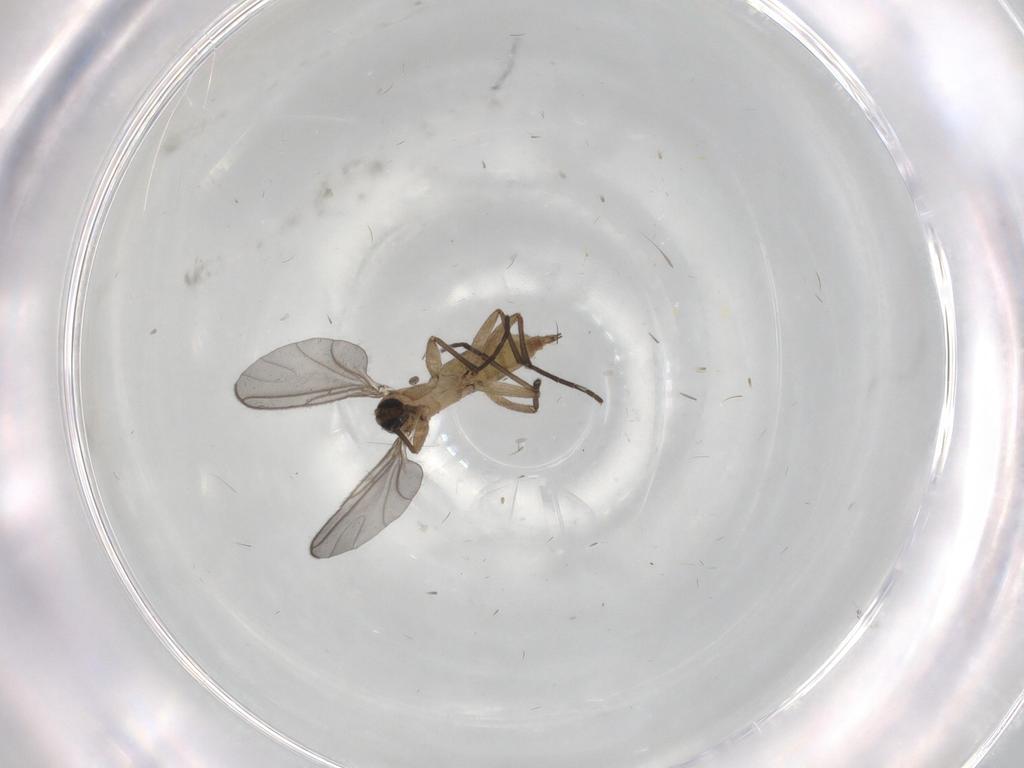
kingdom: Animalia
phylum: Arthropoda
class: Insecta
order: Diptera
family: Sciaridae
